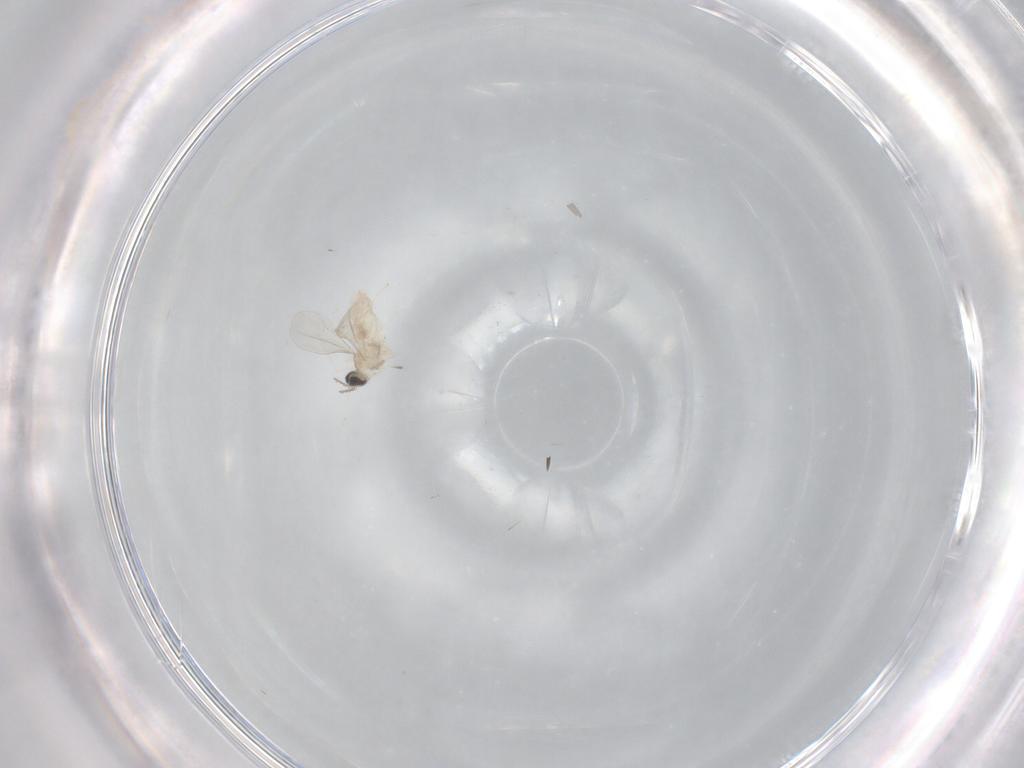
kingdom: Animalia
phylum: Arthropoda
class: Insecta
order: Diptera
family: Cecidomyiidae
